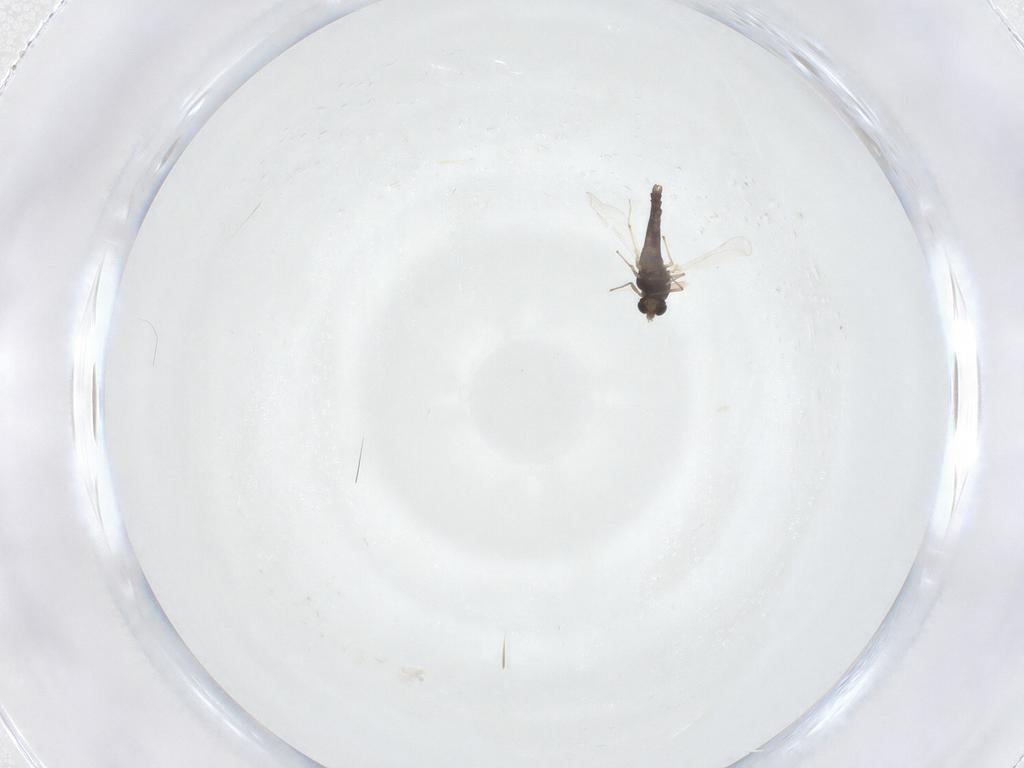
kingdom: Animalia
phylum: Arthropoda
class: Insecta
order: Diptera
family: Chironomidae
